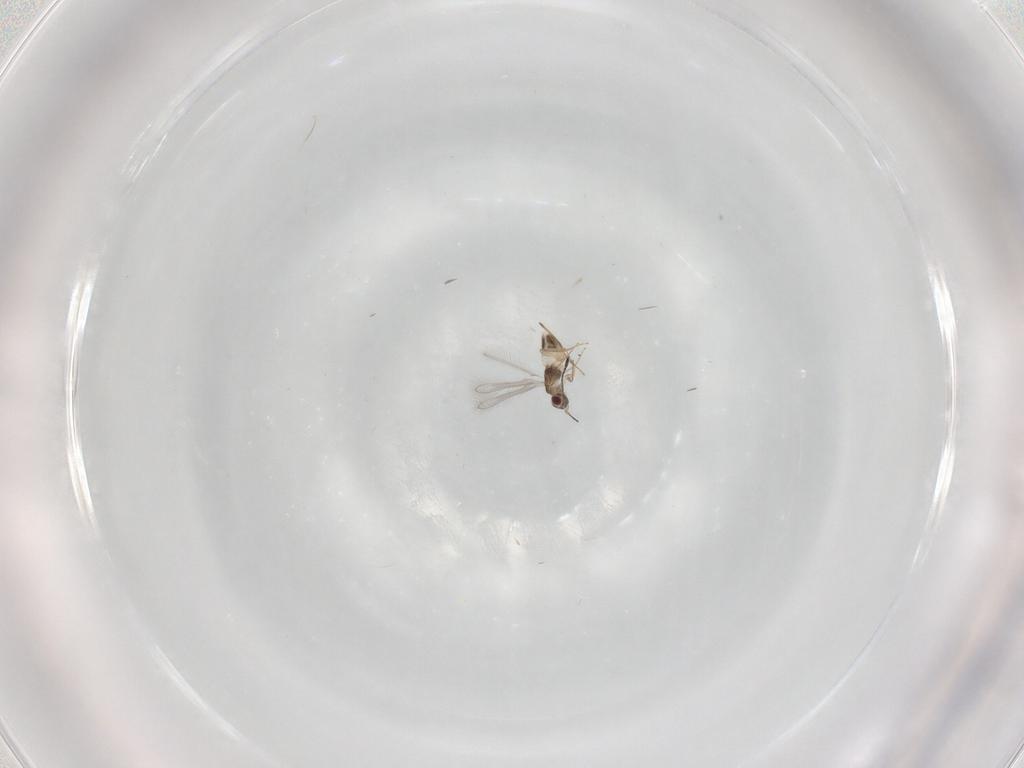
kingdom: Animalia
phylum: Arthropoda
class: Insecta
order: Hymenoptera
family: Mymaridae
